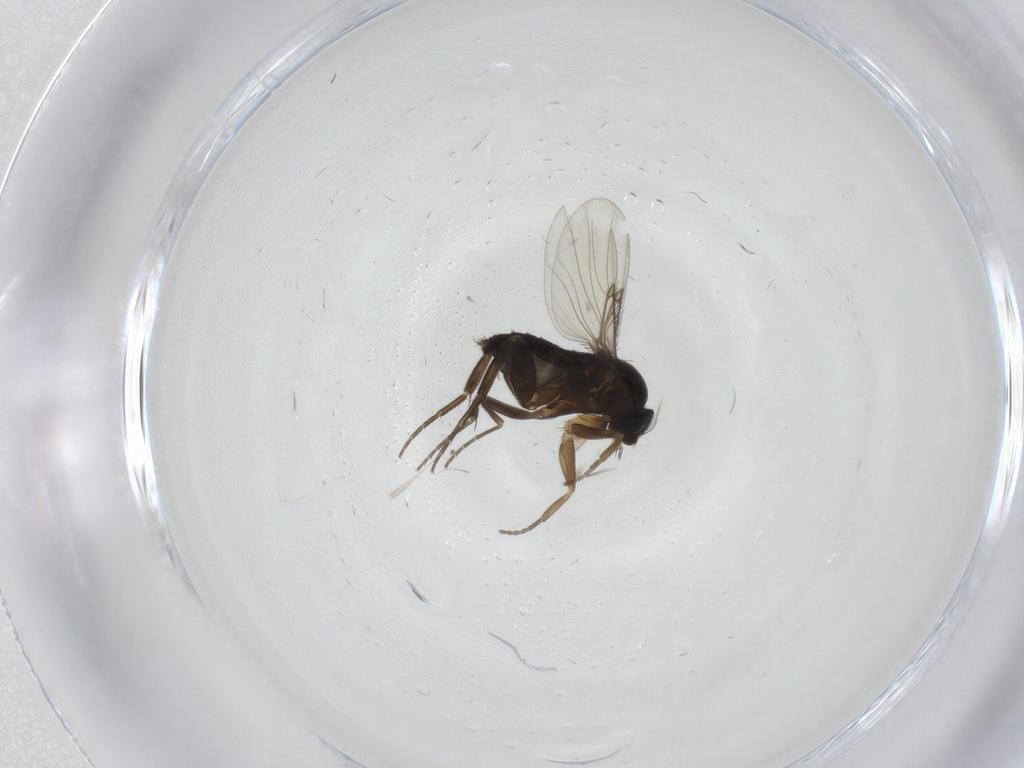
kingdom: Animalia
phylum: Arthropoda
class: Insecta
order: Diptera
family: Phoridae
